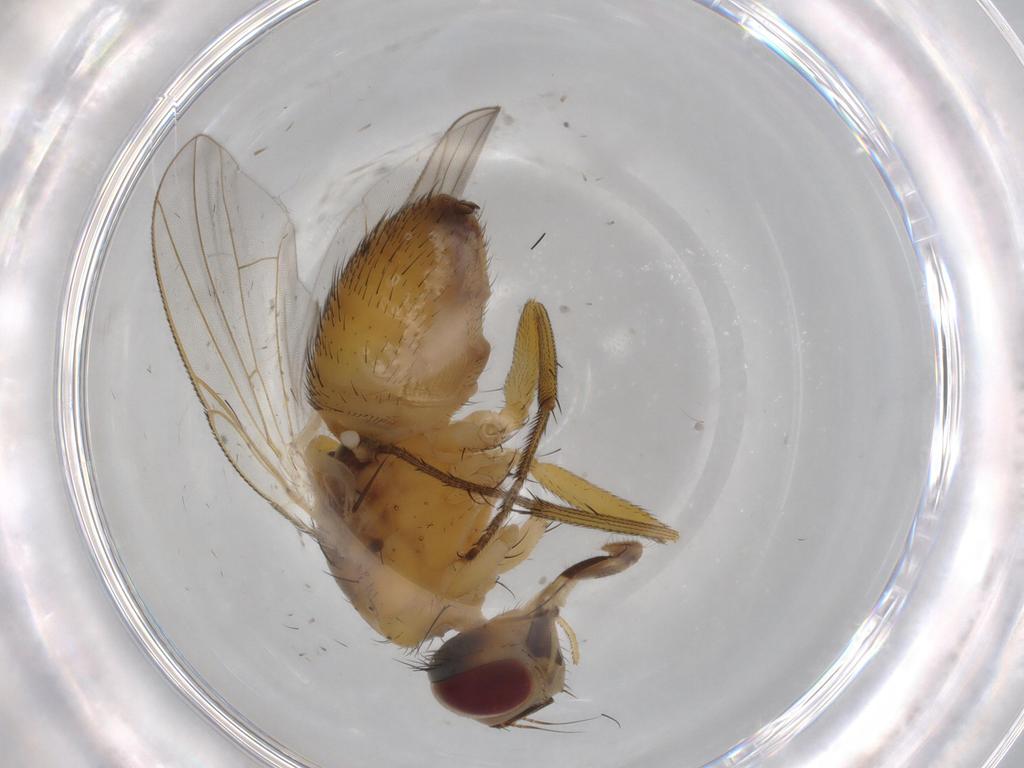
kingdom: Animalia
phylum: Arthropoda
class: Insecta
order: Diptera
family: Muscidae
